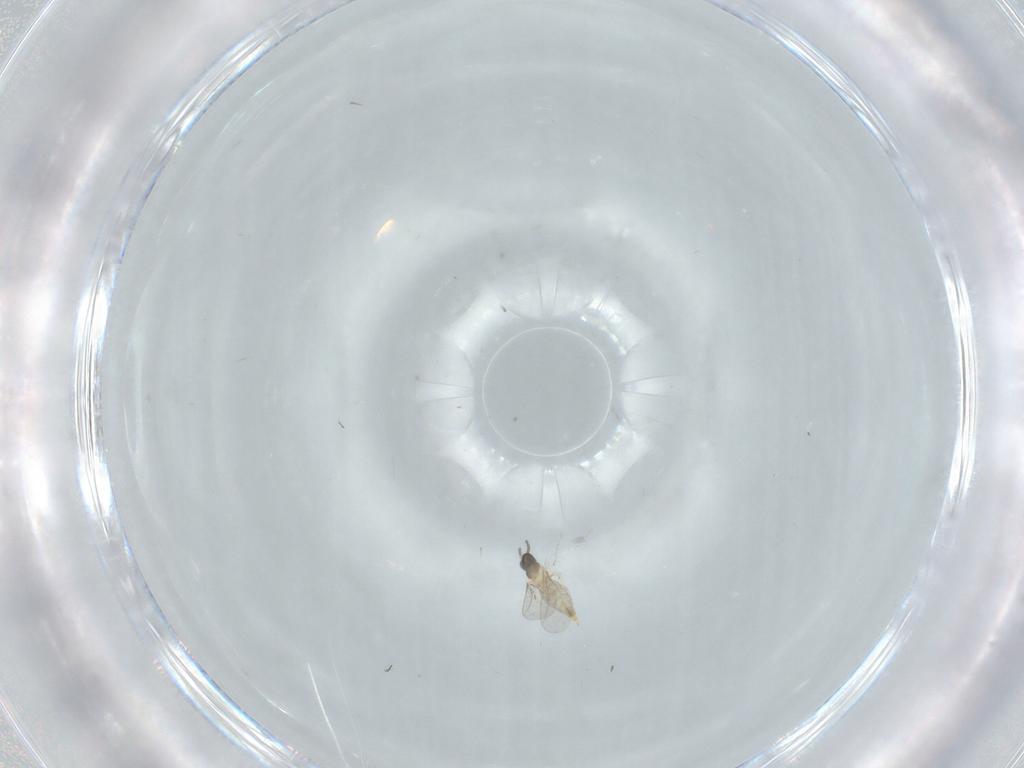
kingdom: Animalia
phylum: Arthropoda
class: Insecta
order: Diptera
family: Cecidomyiidae
